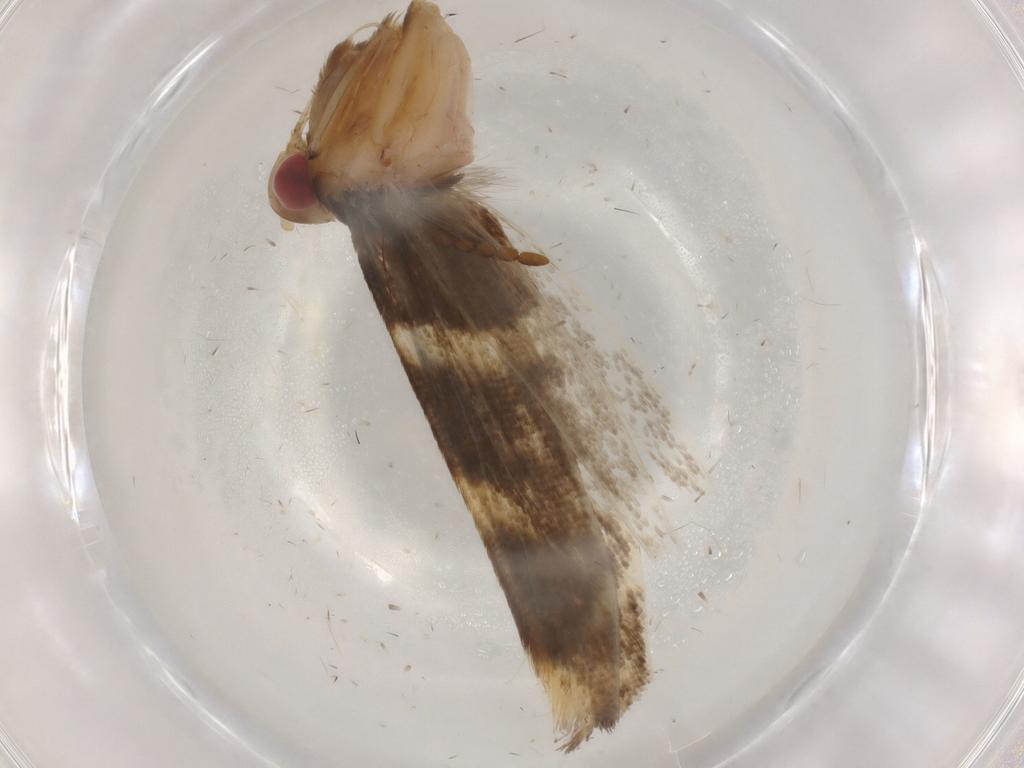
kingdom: Animalia
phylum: Arthropoda
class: Insecta
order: Lepidoptera
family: Cosmopterigidae
